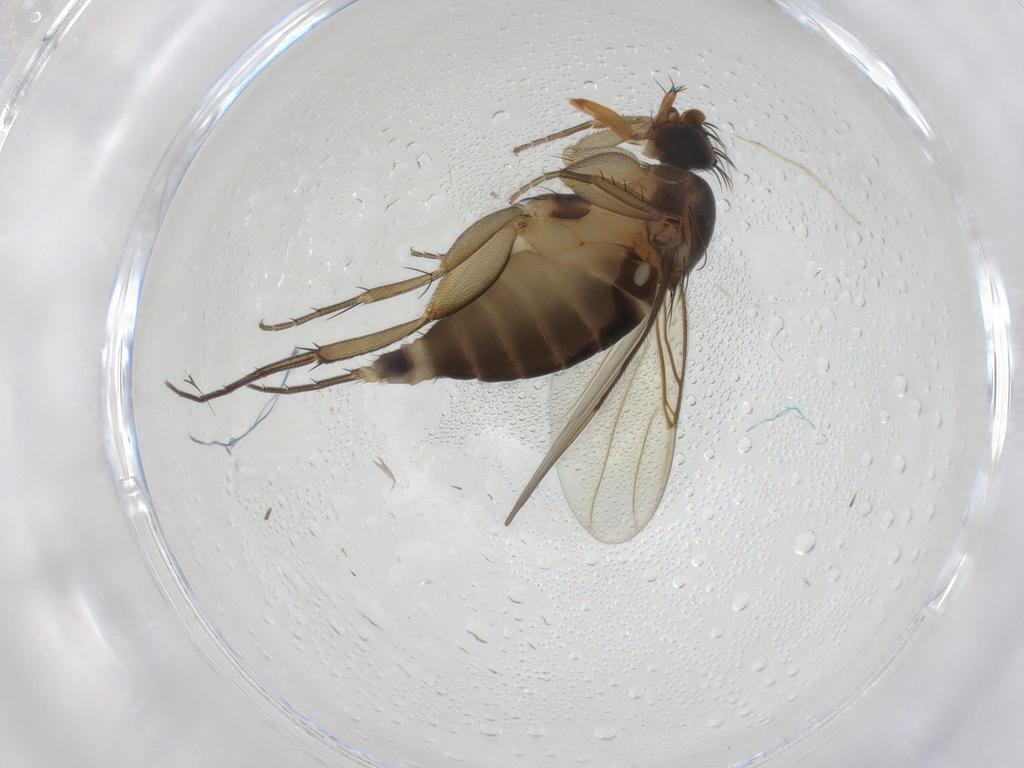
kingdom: Animalia
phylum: Arthropoda
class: Insecta
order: Diptera
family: Phoridae
